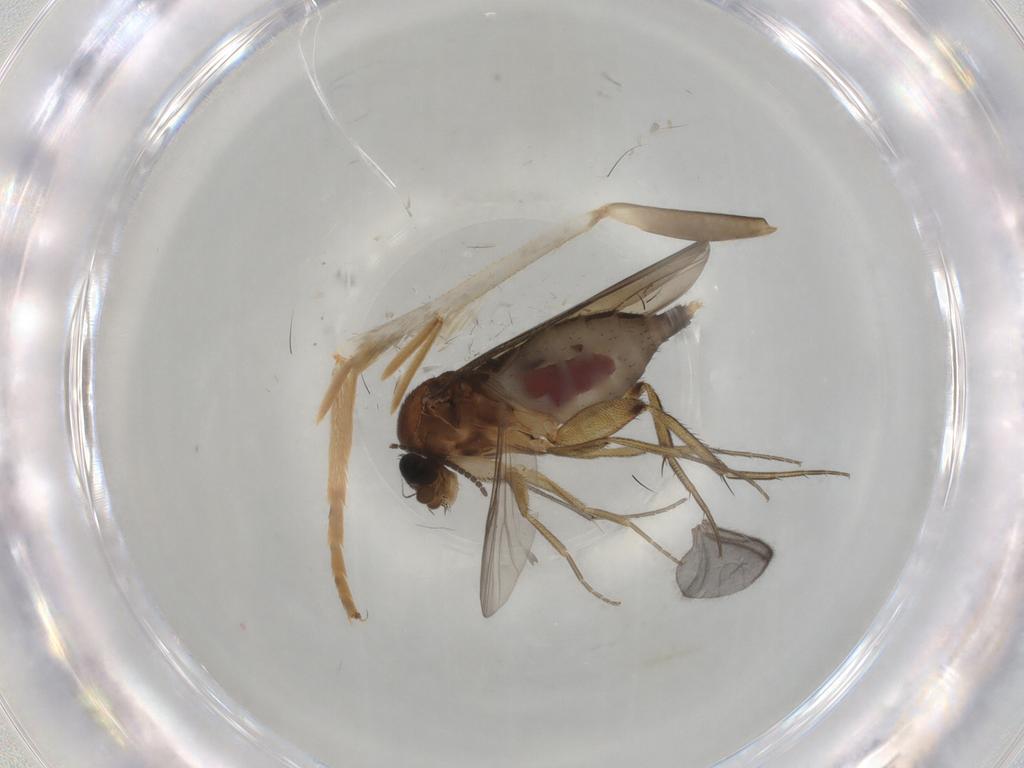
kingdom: Animalia
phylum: Arthropoda
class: Insecta
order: Diptera
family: Phoridae
